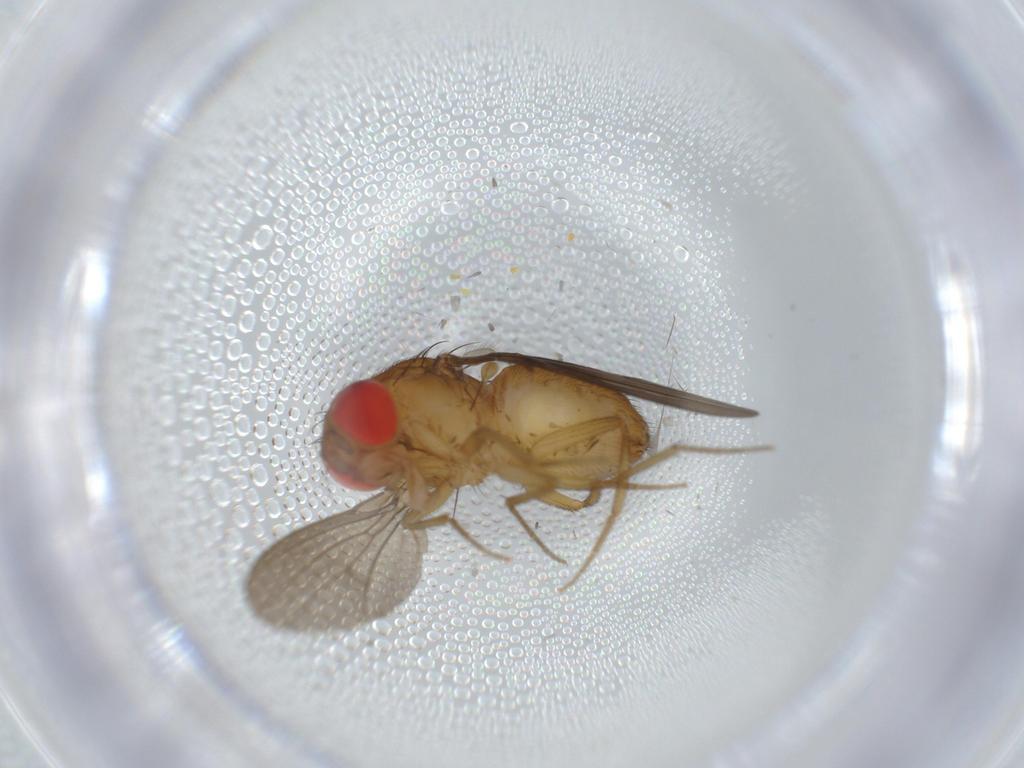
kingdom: Animalia
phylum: Arthropoda
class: Insecta
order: Diptera
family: Drosophilidae
